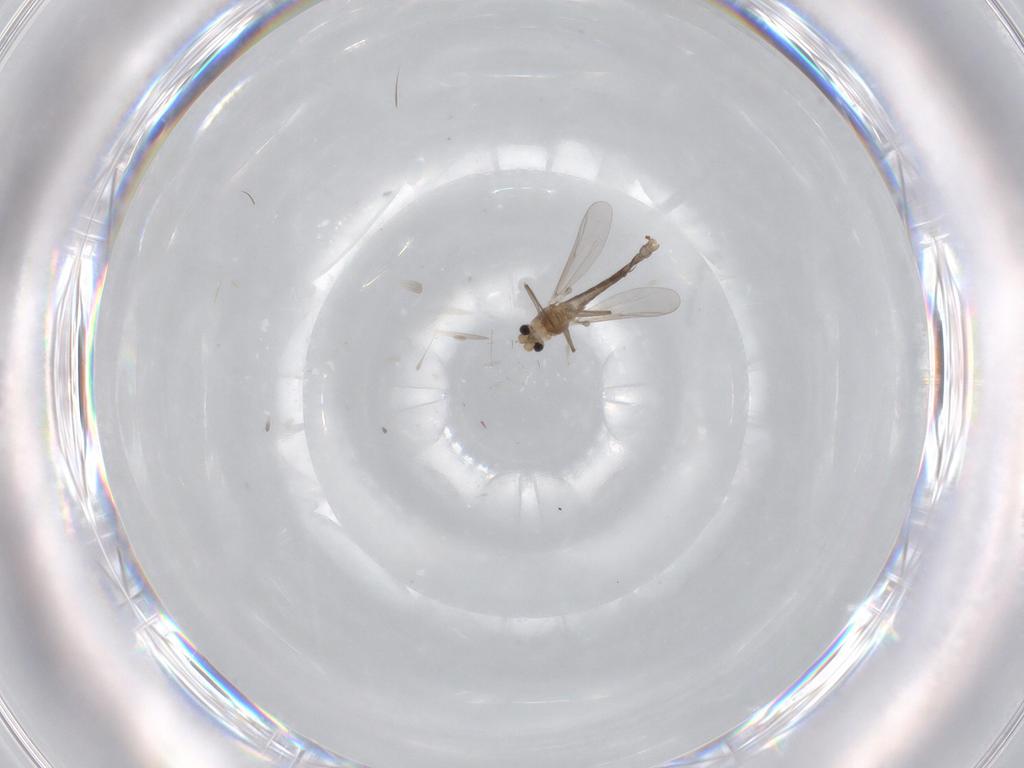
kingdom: Animalia
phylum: Arthropoda
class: Insecta
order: Diptera
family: Chironomidae
